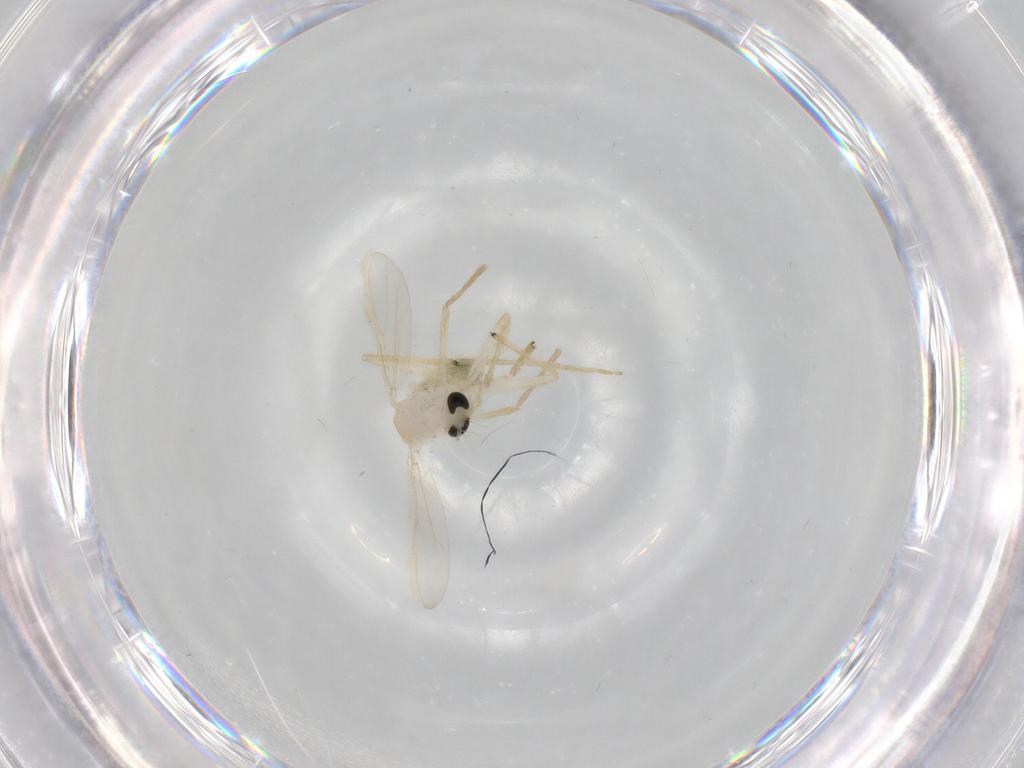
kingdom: Animalia
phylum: Arthropoda
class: Insecta
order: Diptera
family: Chironomidae
